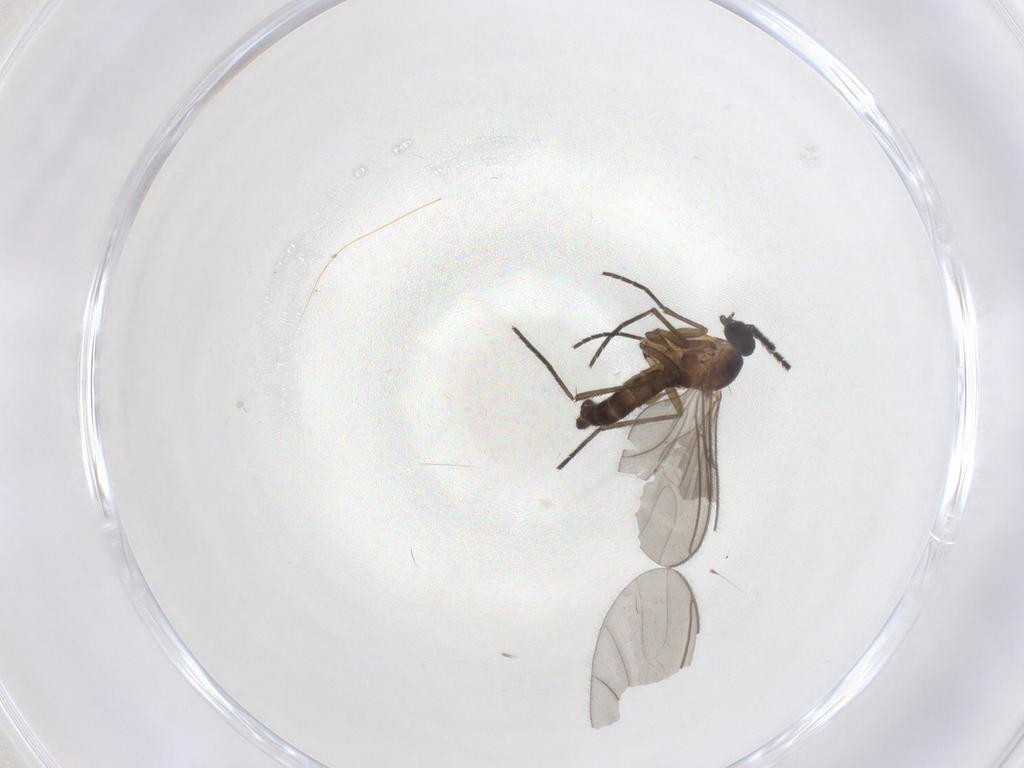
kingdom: Animalia
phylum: Arthropoda
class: Insecta
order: Diptera
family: Sciaridae
